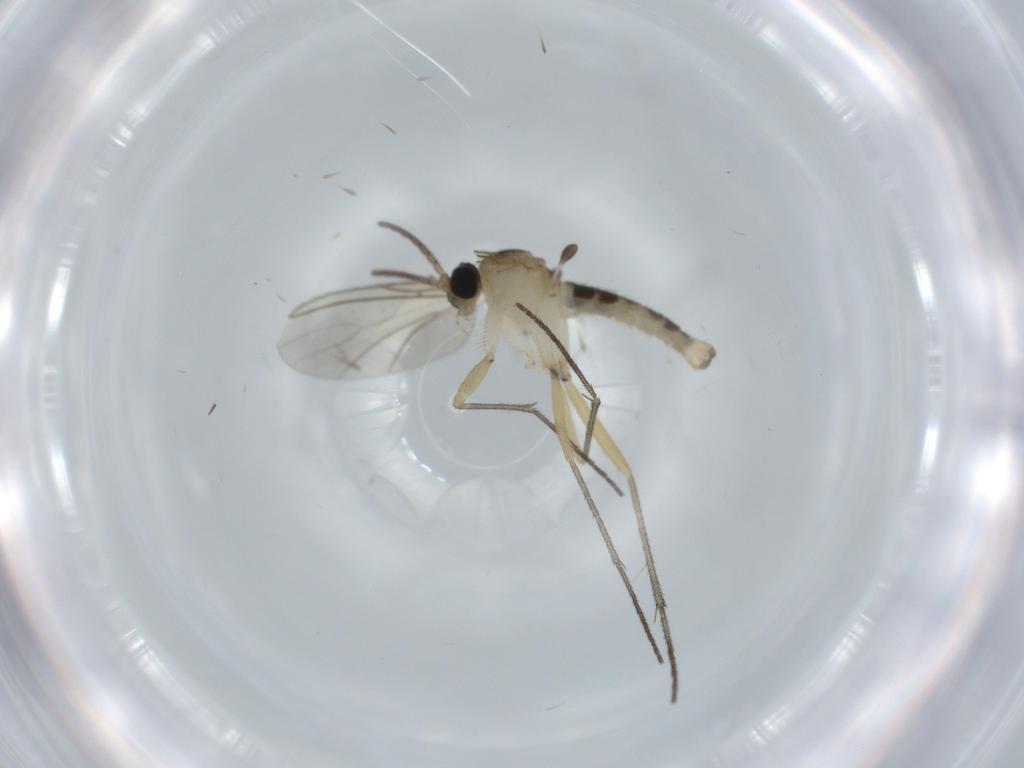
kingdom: Animalia
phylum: Arthropoda
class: Insecta
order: Diptera
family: Sciaridae
